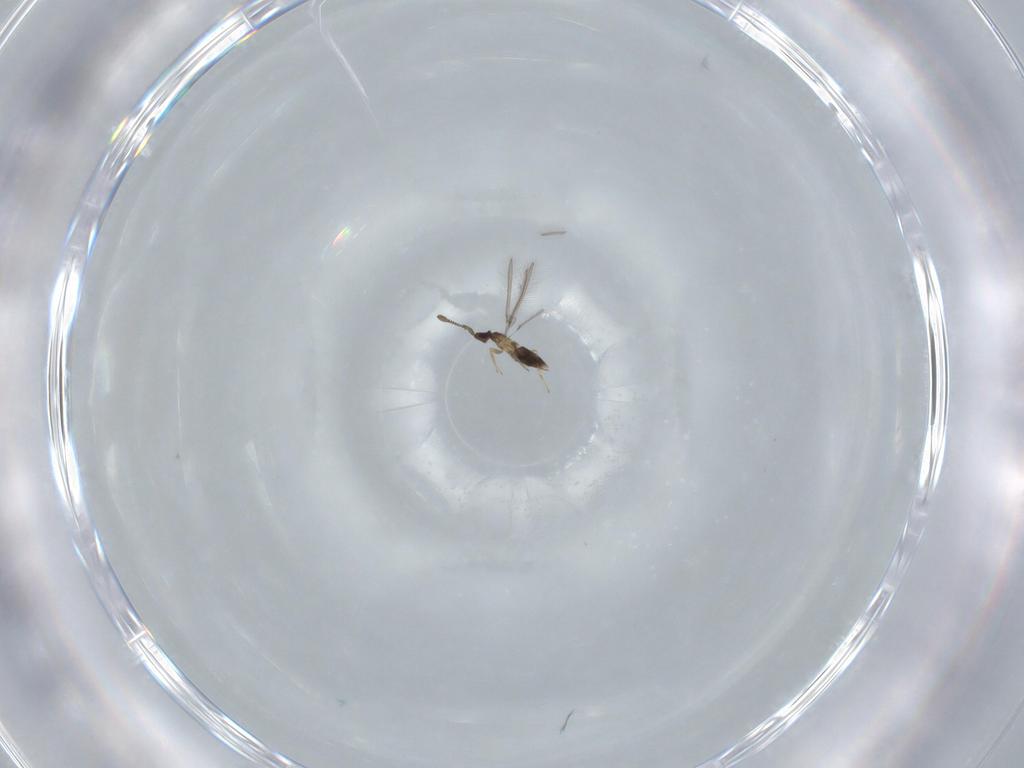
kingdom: Animalia
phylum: Arthropoda
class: Insecta
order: Hymenoptera
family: Mymaridae
